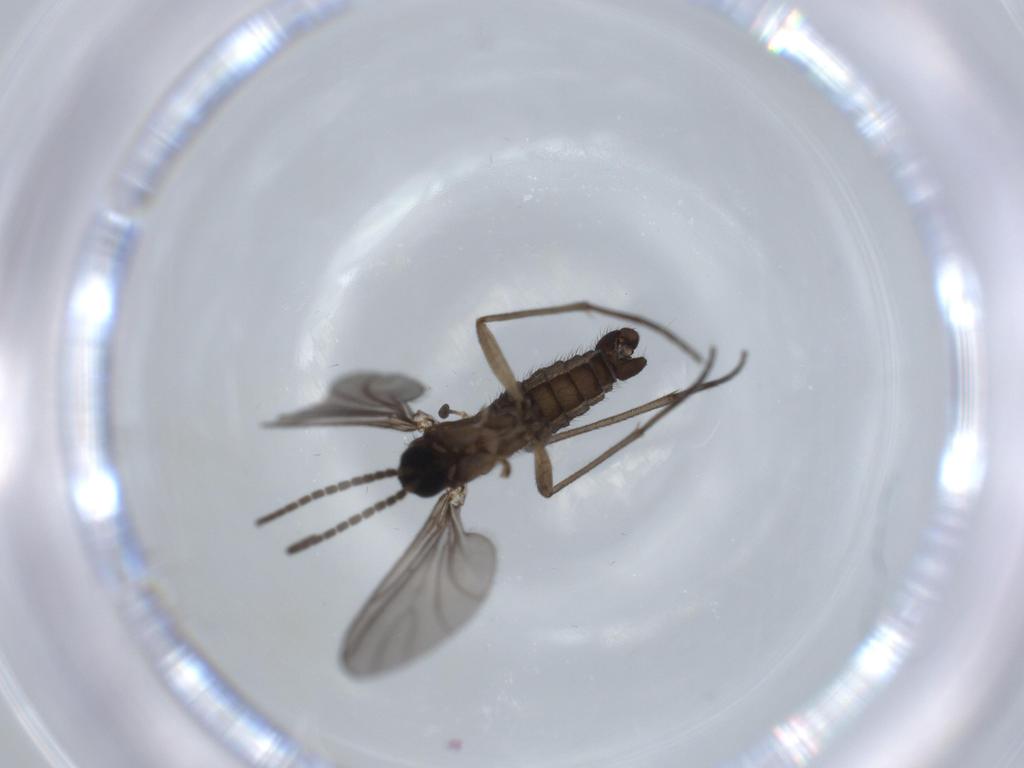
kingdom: Animalia
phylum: Arthropoda
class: Insecta
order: Diptera
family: Sciaridae
